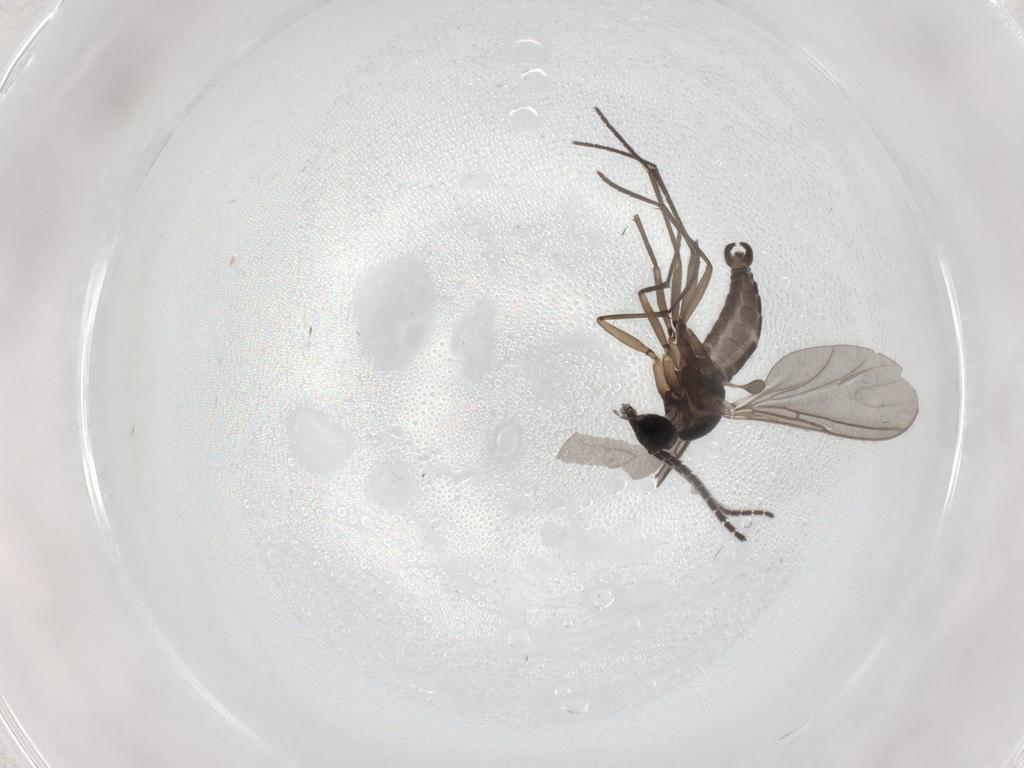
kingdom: Animalia
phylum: Arthropoda
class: Insecta
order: Diptera
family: Sciaridae
